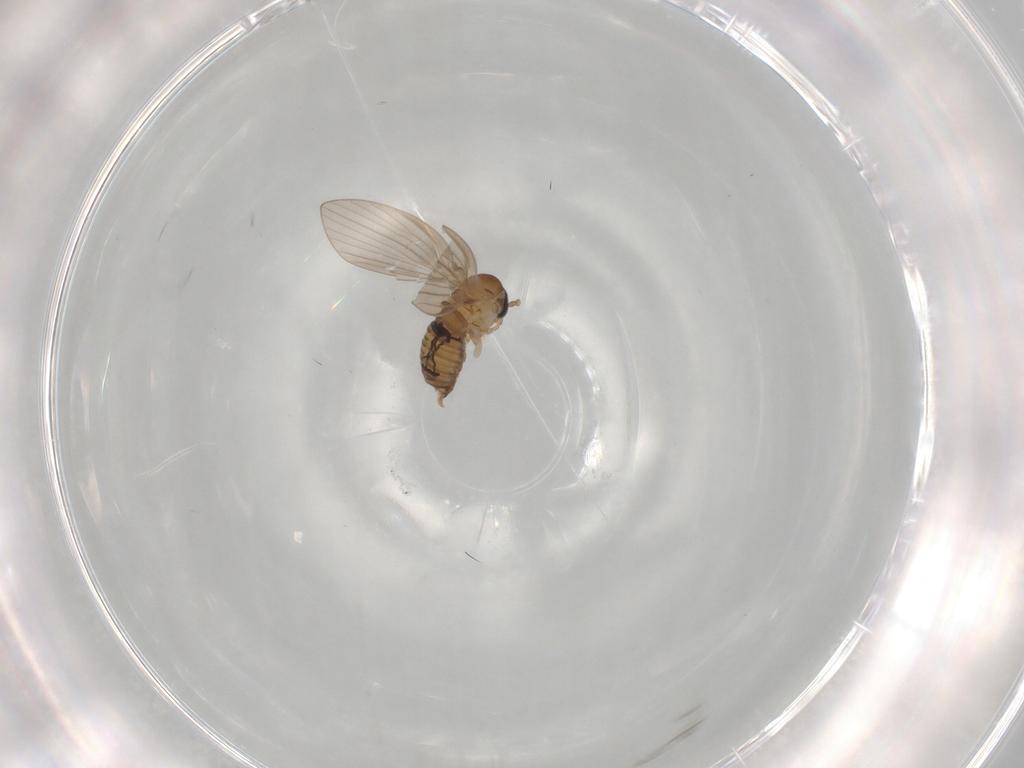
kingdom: Animalia
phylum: Arthropoda
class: Insecta
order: Diptera
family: Psychodidae
